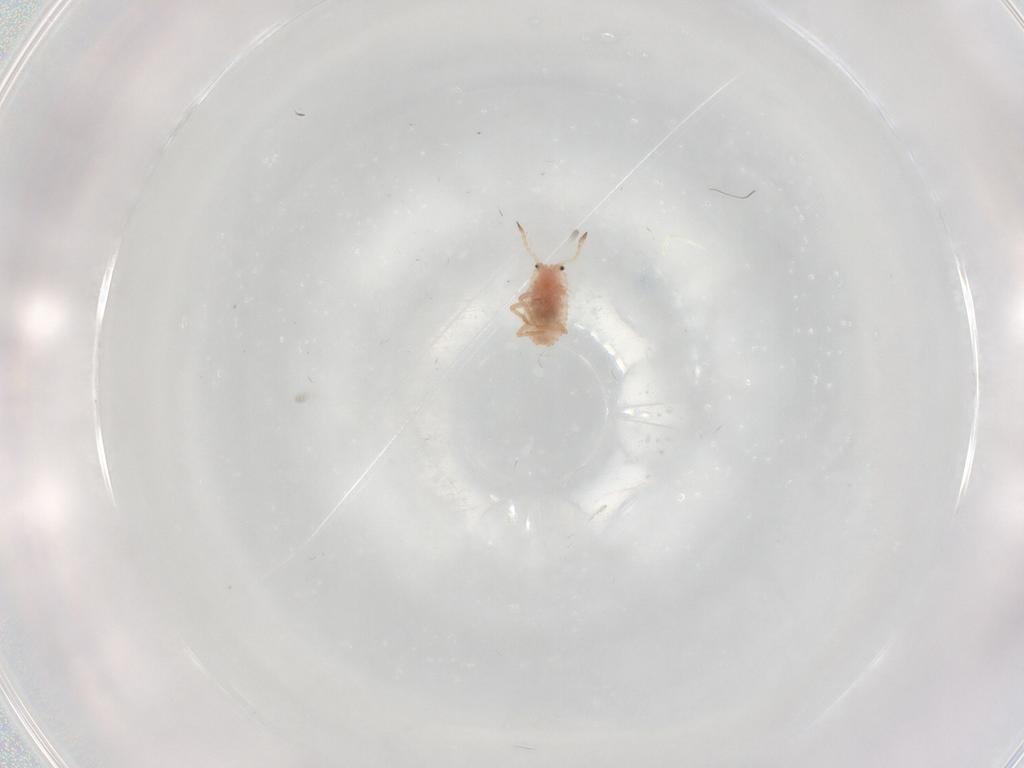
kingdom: Animalia
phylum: Arthropoda
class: Insecta
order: Hemiptera
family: Coccoidea_incertae_sedis
